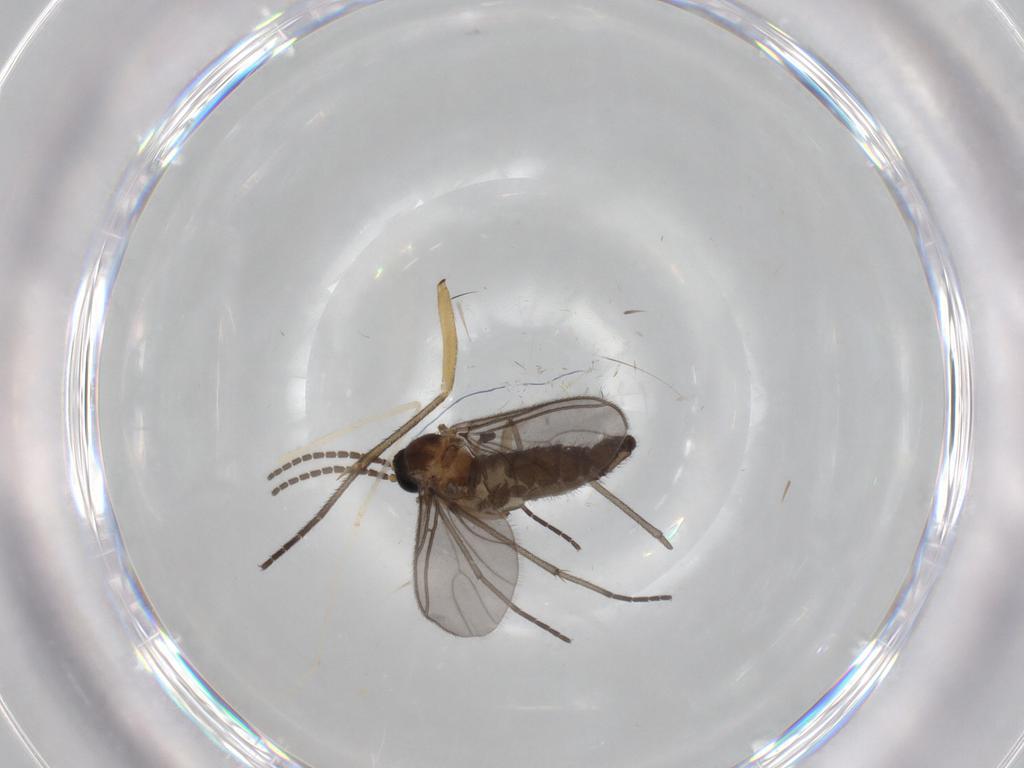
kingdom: Animalia
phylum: Arthropoda
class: Insecta
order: Diptera
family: Sciaridae
